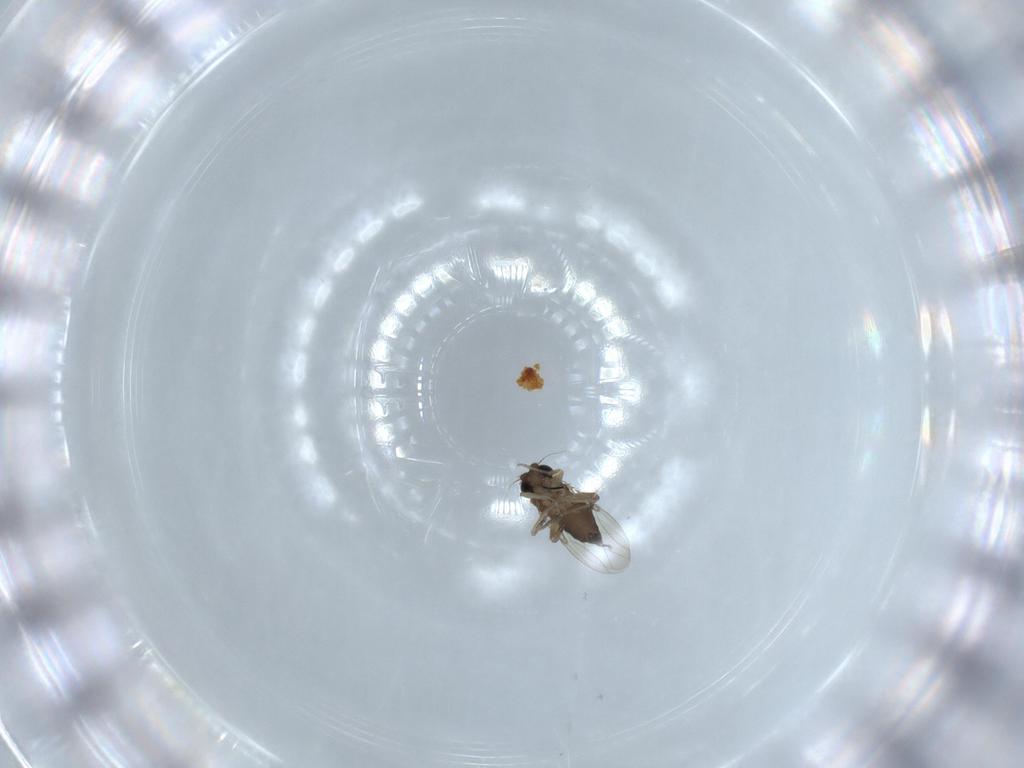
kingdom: Animalia
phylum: Arthropoda
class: Insecta
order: Diptera
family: Phoridae
